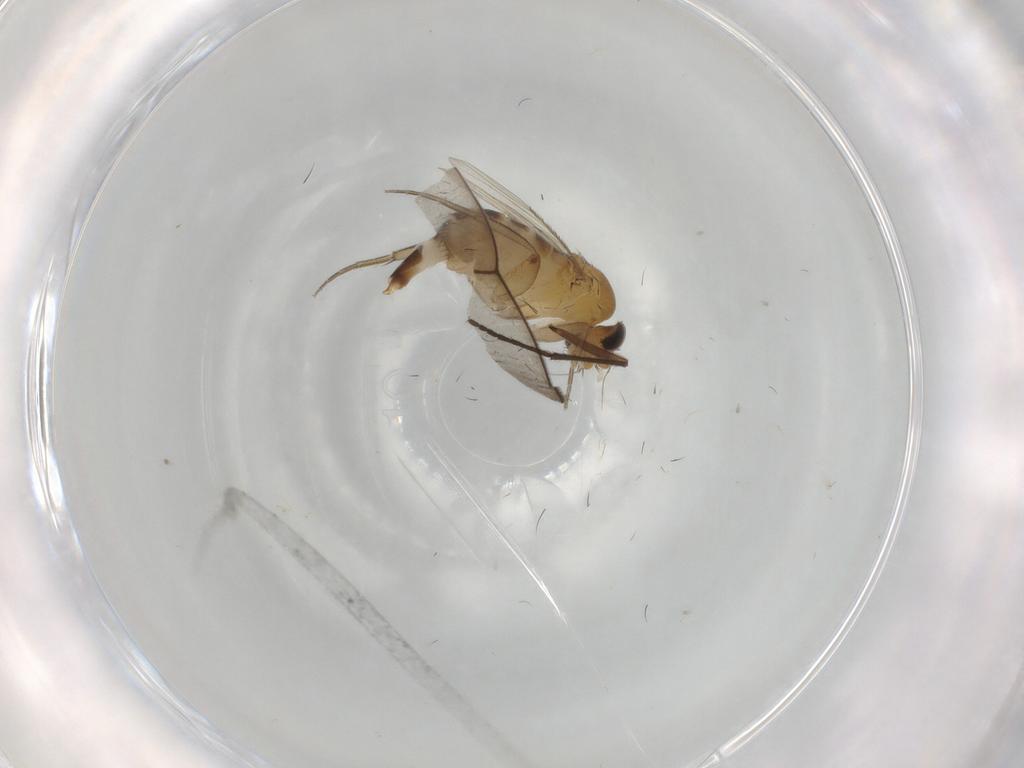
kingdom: Animalia
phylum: Arthropoda
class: Insecta
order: Diptera
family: Phoridae
